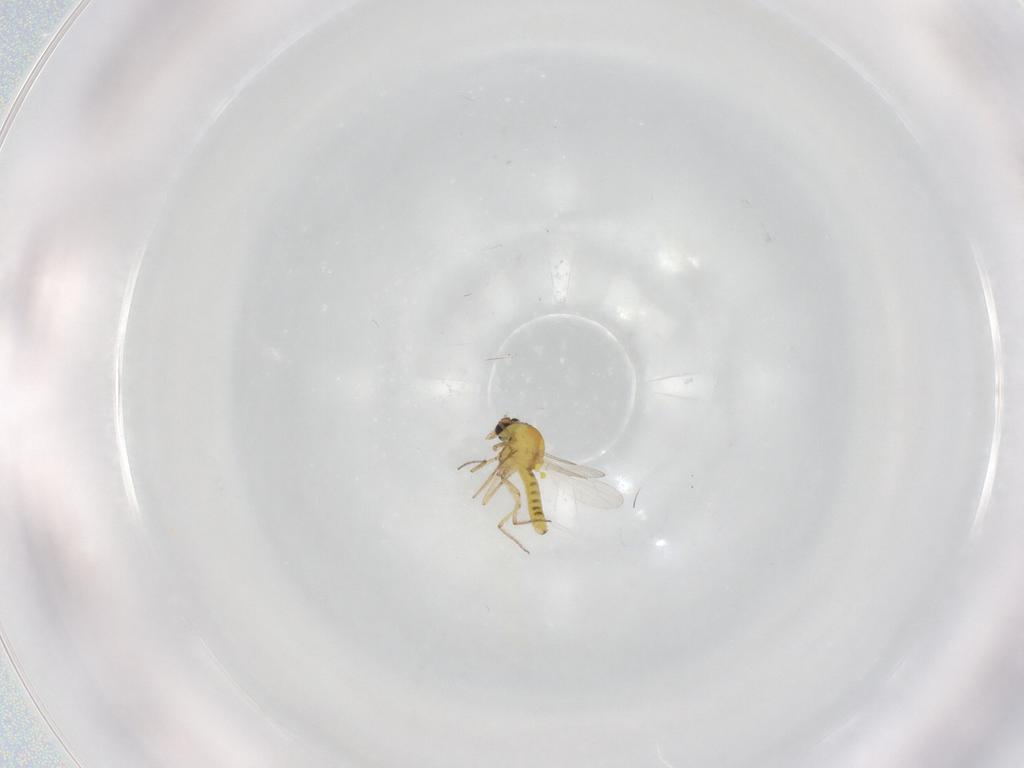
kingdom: Animalia
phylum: Arthropoda
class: Insecta
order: Diptera
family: Ceratopogonidae
